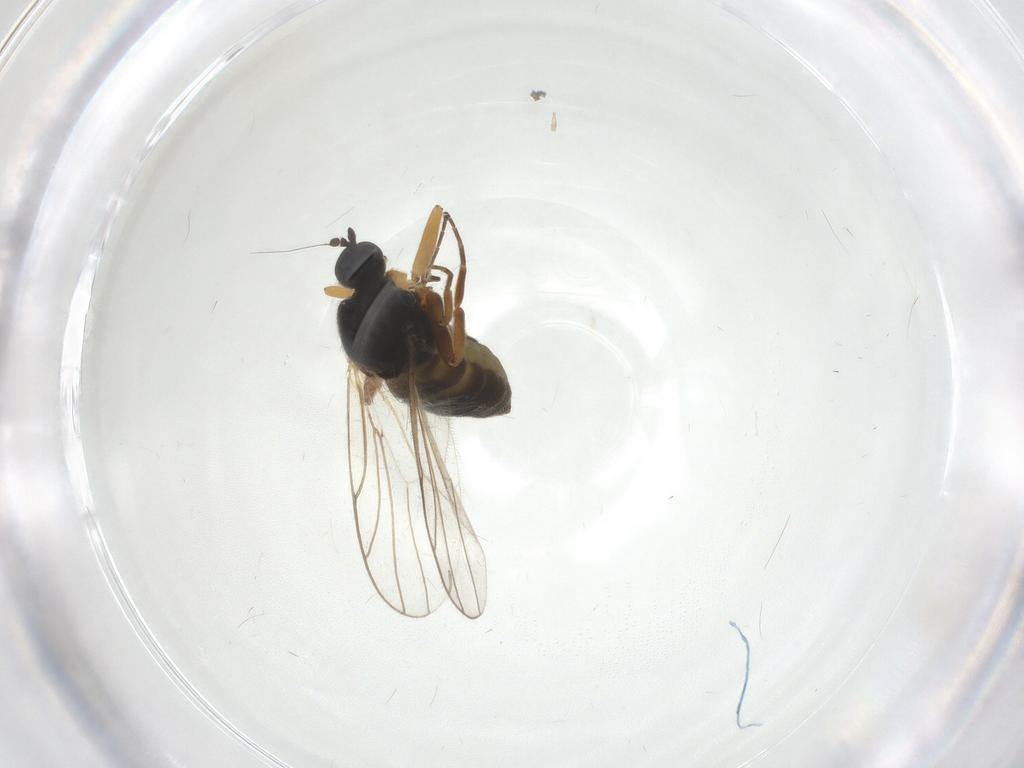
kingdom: Animalia
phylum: Arthropoda
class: Insecta
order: Diptera
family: Hybotidae
